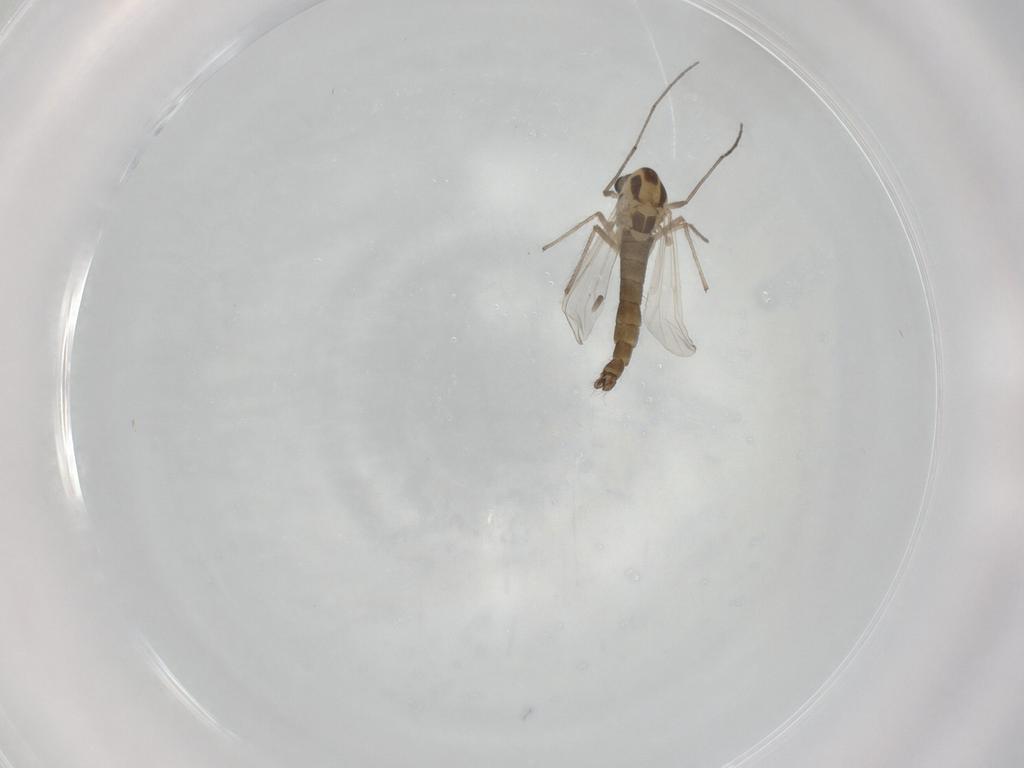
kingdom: Animalia
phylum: Arthropoda
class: Insecta
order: Diptera
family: Chironomidae
